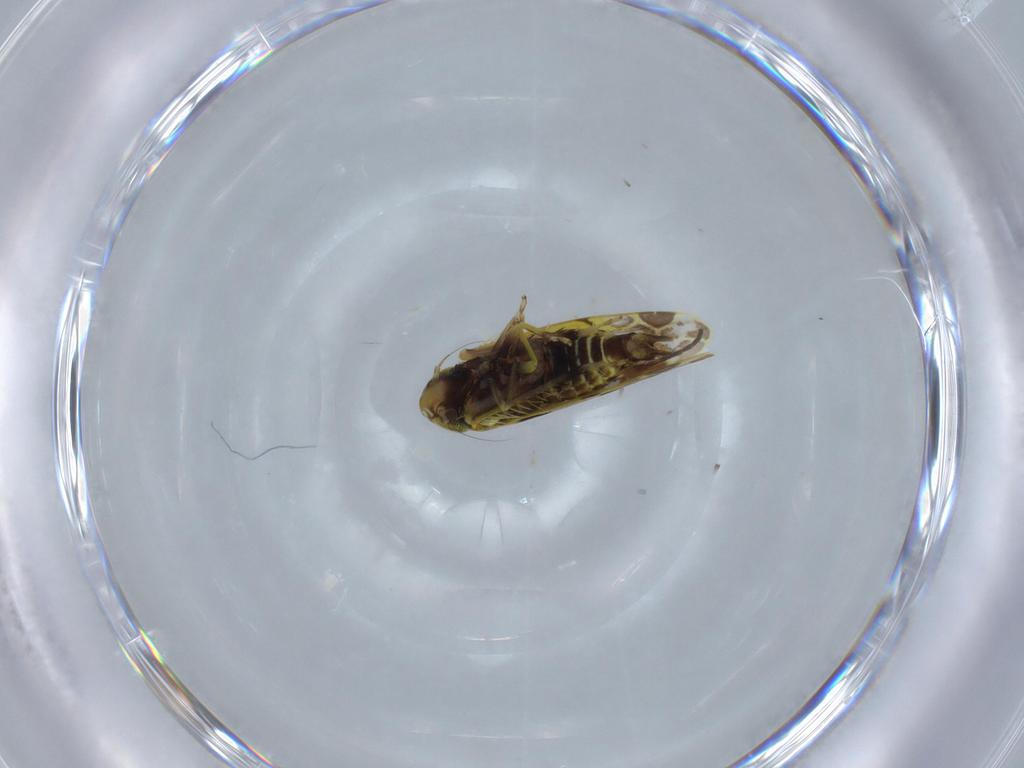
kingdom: Animalia
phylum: Arthropoda
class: Insecta
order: Hemiptera
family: Cicadellidae
